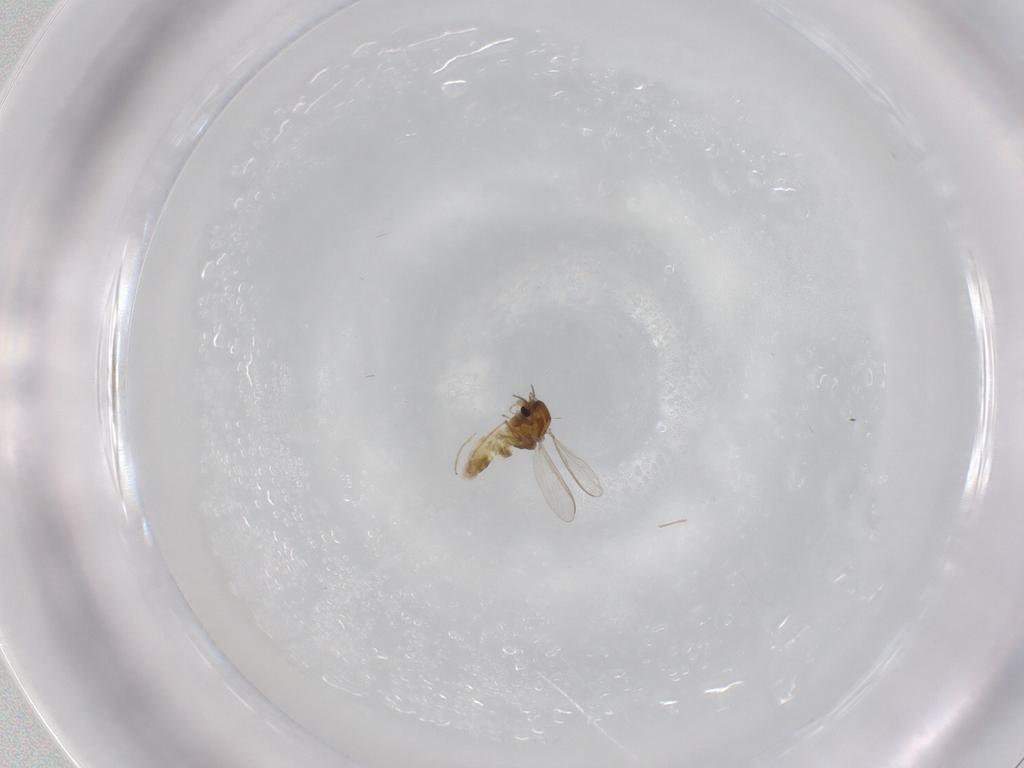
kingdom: Animalia
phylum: Arthropoda
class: Insecta
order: Diptera
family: Chironomidae
